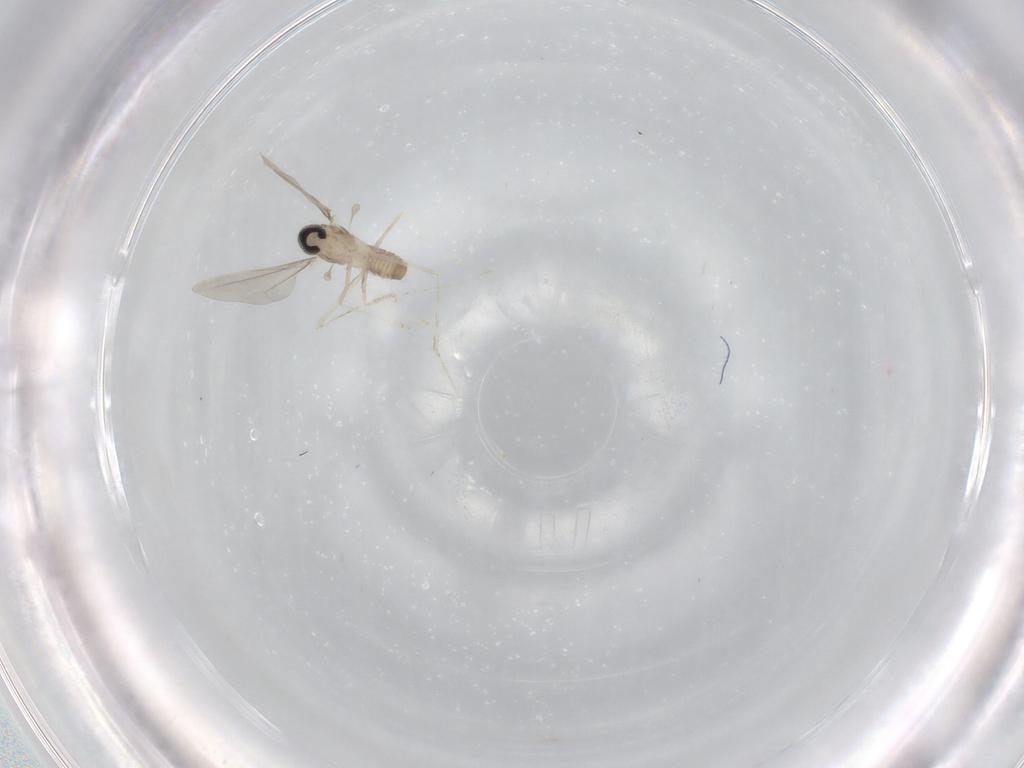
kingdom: Animalia
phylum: Arthropoda
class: Insecta
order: Diptera
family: Cecidomyiidae
